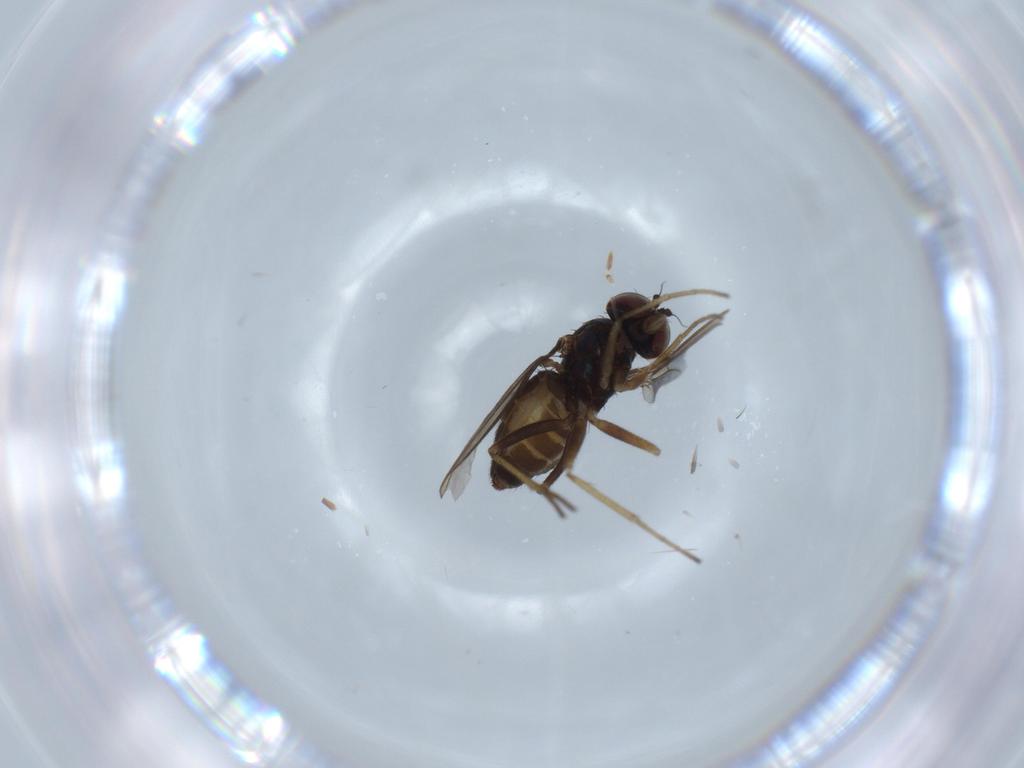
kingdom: Animalia
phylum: Arthropoda
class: Insecta
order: Diptera
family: Dolichopodidae
